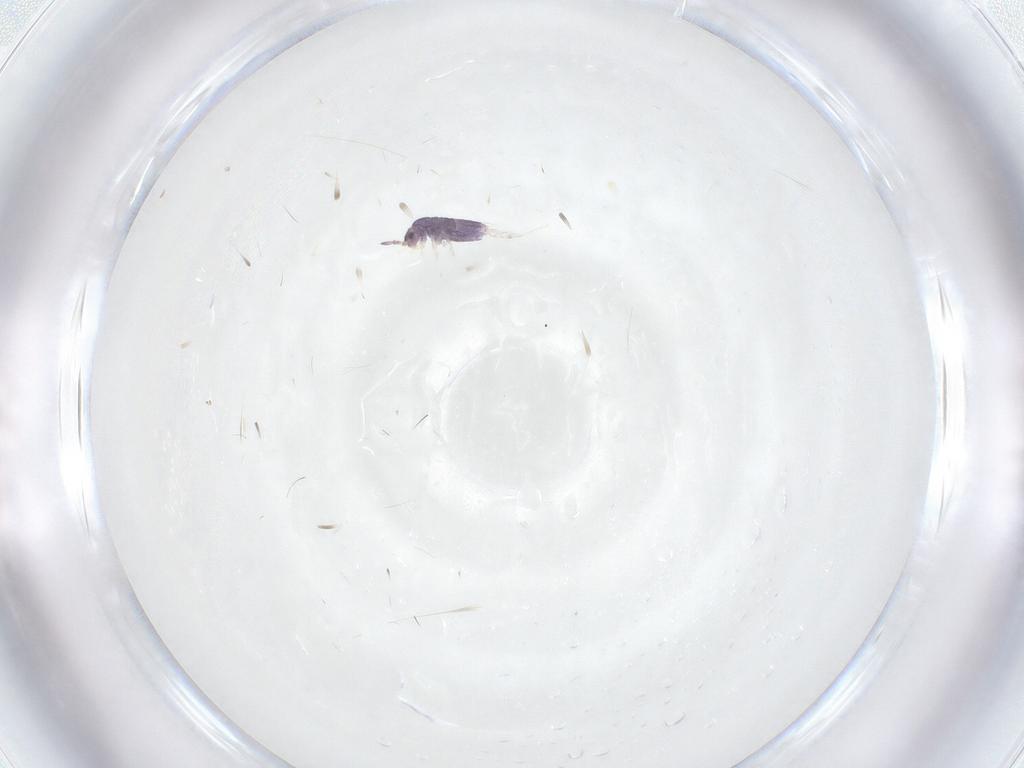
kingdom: Animalia
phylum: Arthropoda
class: Collembola
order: Entomobryomorpha
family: Entomobryidae
